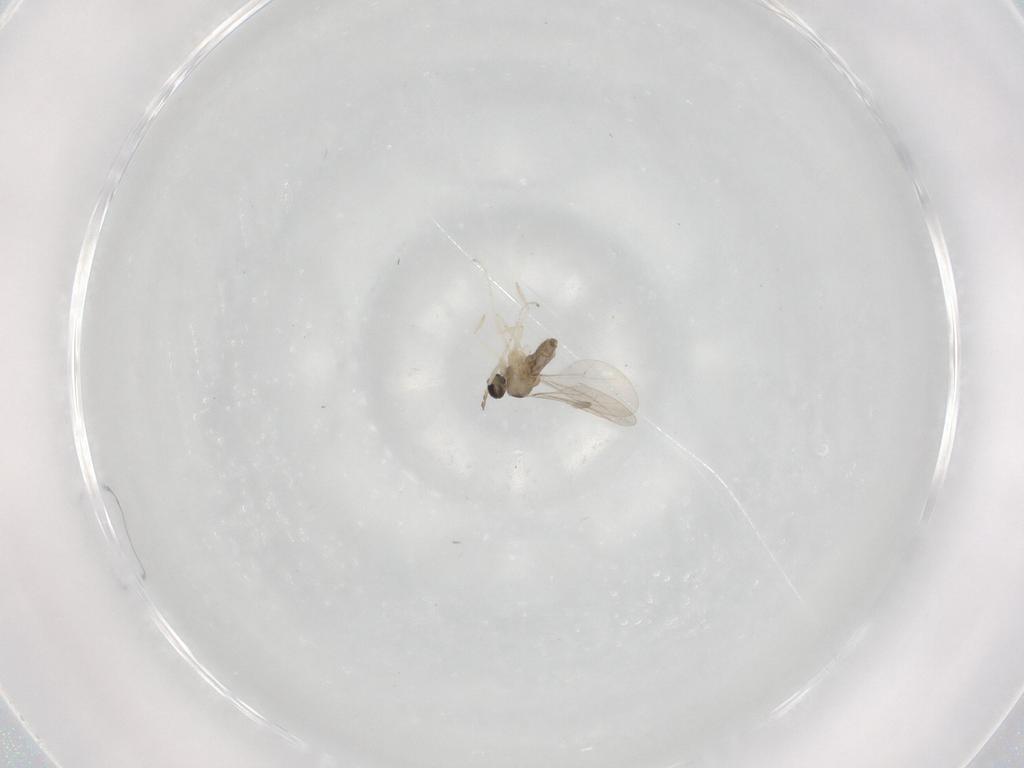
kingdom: Animalia
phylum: Arthropoda
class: Insecta
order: Diptera
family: Cecidomyiidae
